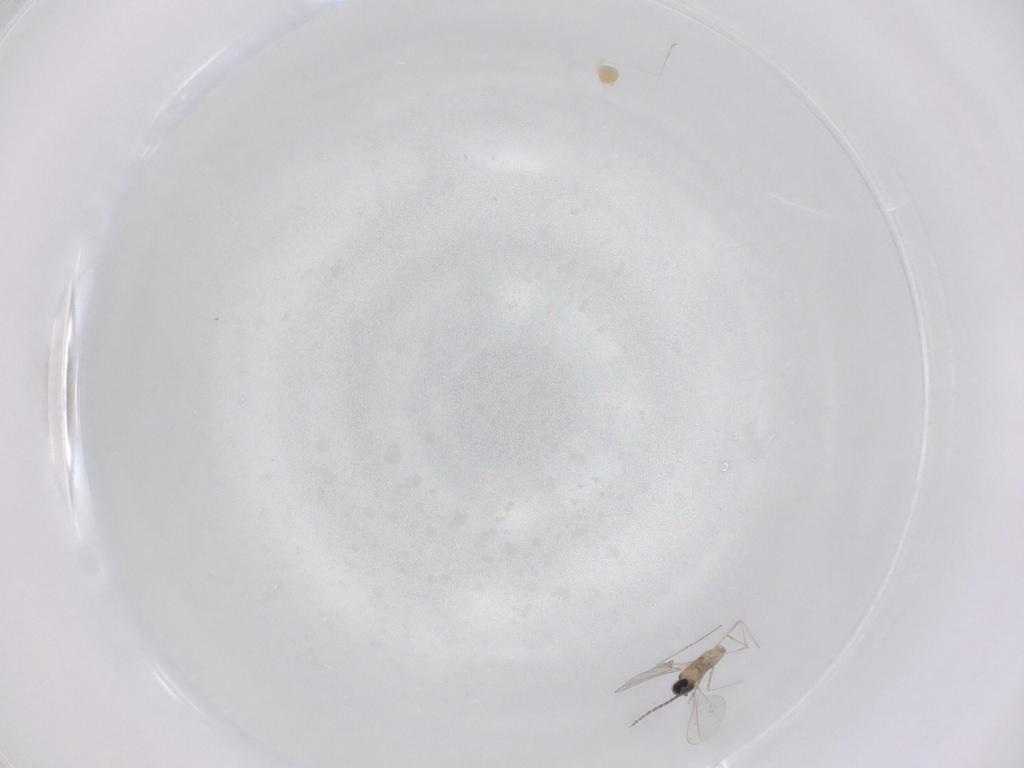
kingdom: Animalia
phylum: Arthropoda
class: Insecta
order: Diptera
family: Cecidomyiidae
